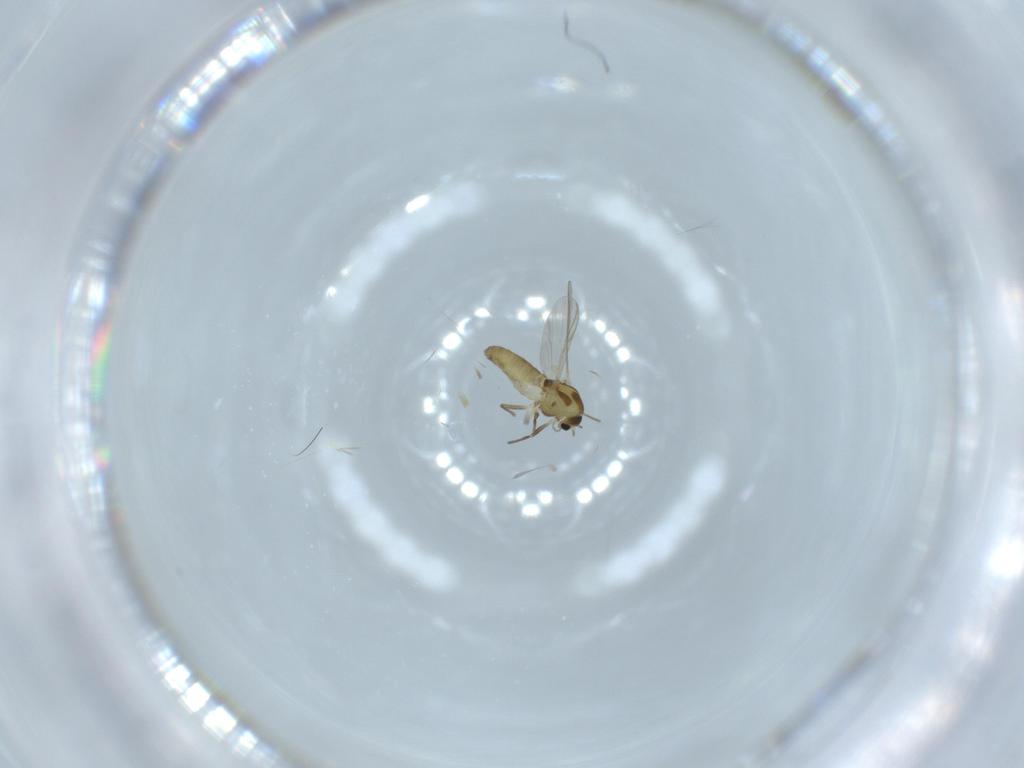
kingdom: Animalia
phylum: Arthropoda
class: Insecta
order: Diptera
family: Chironomidae
